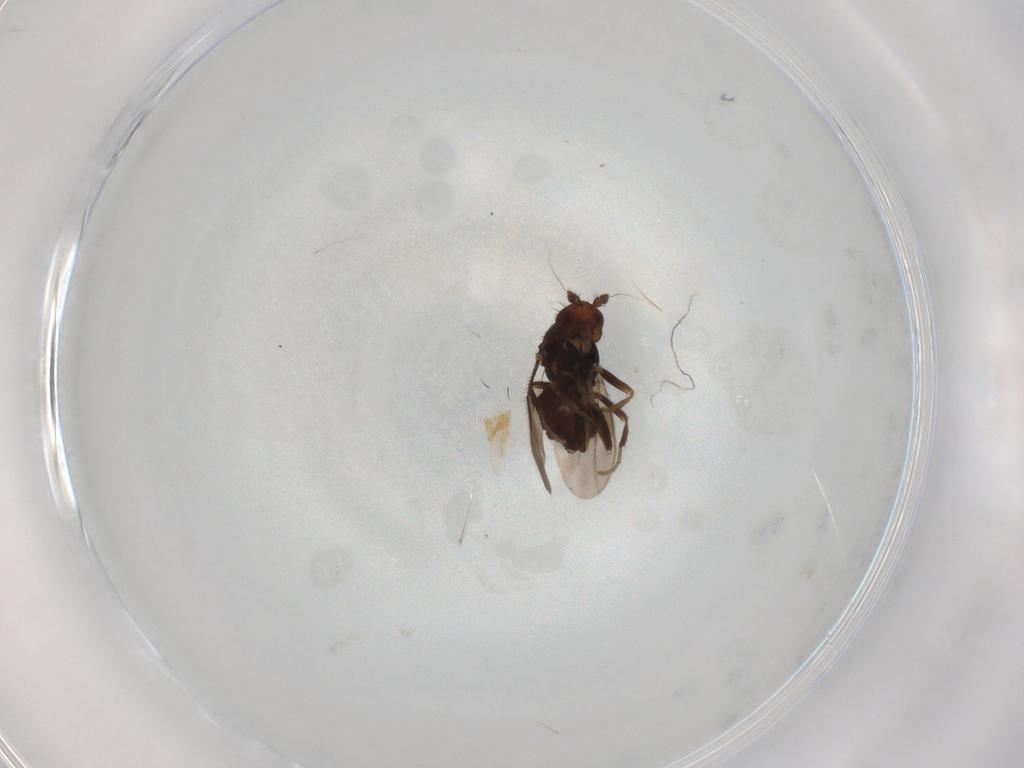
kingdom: Animalia
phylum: Arthropoda
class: Insecta
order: Diptera
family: Sphaeroceridae
